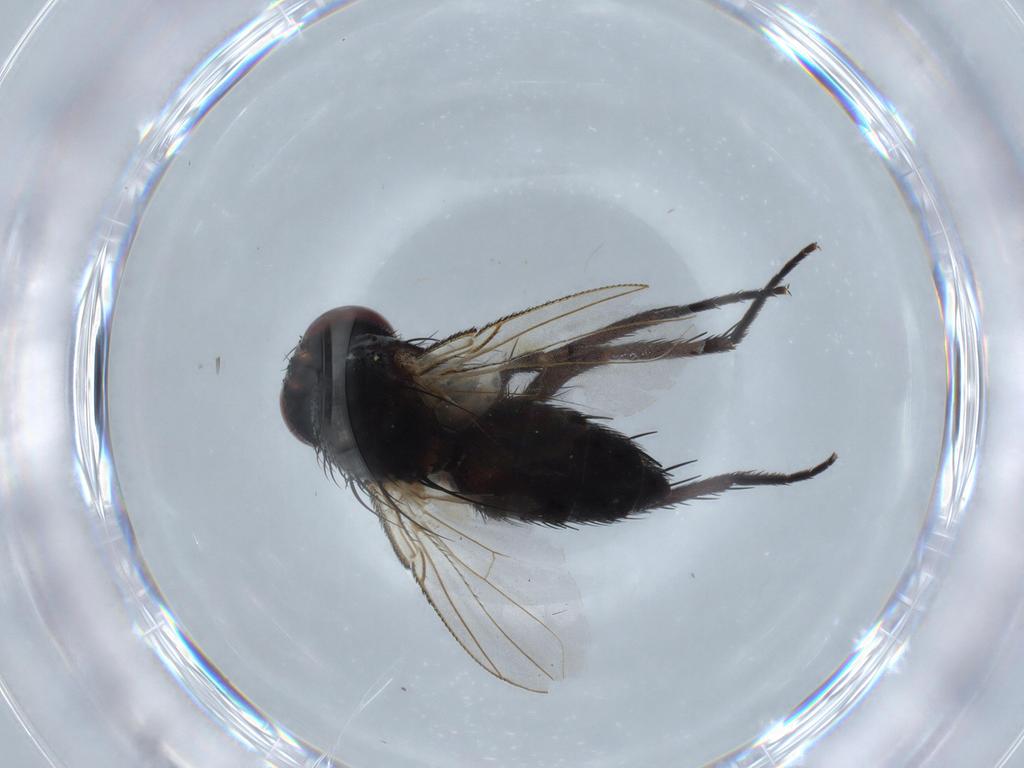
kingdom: Animalia
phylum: Arthropoda
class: Insecta
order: Diptera
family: Tachinidae
